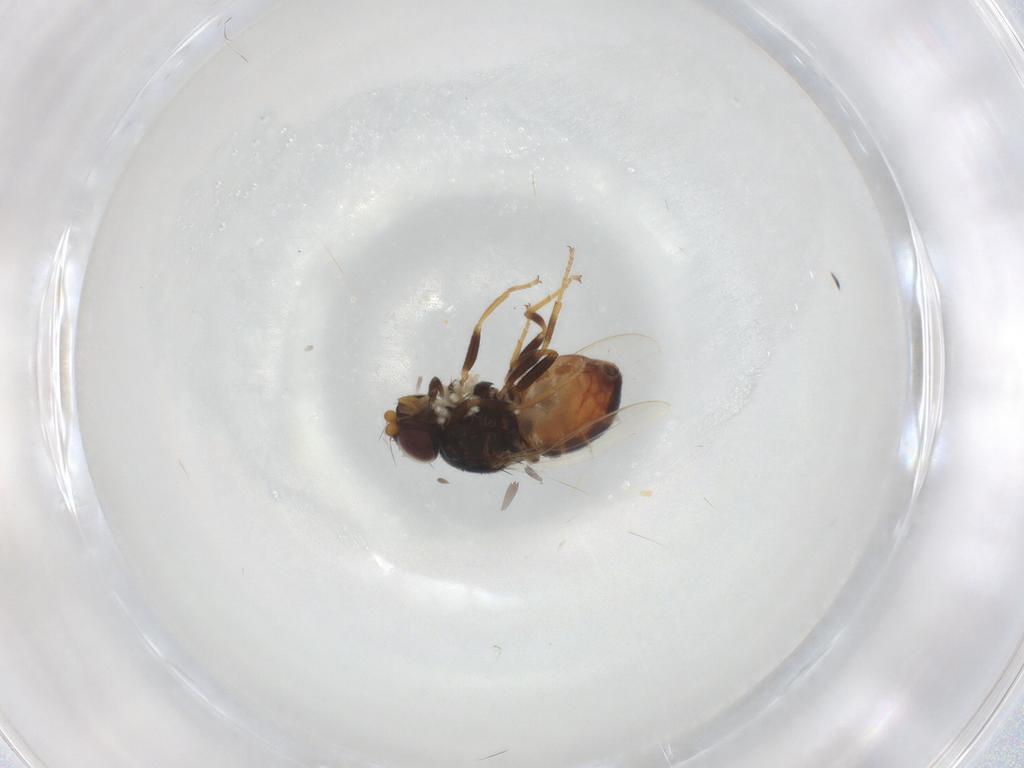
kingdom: Animalia
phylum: Arthropoda
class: Insecta
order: Diptera
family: Chloropidae
